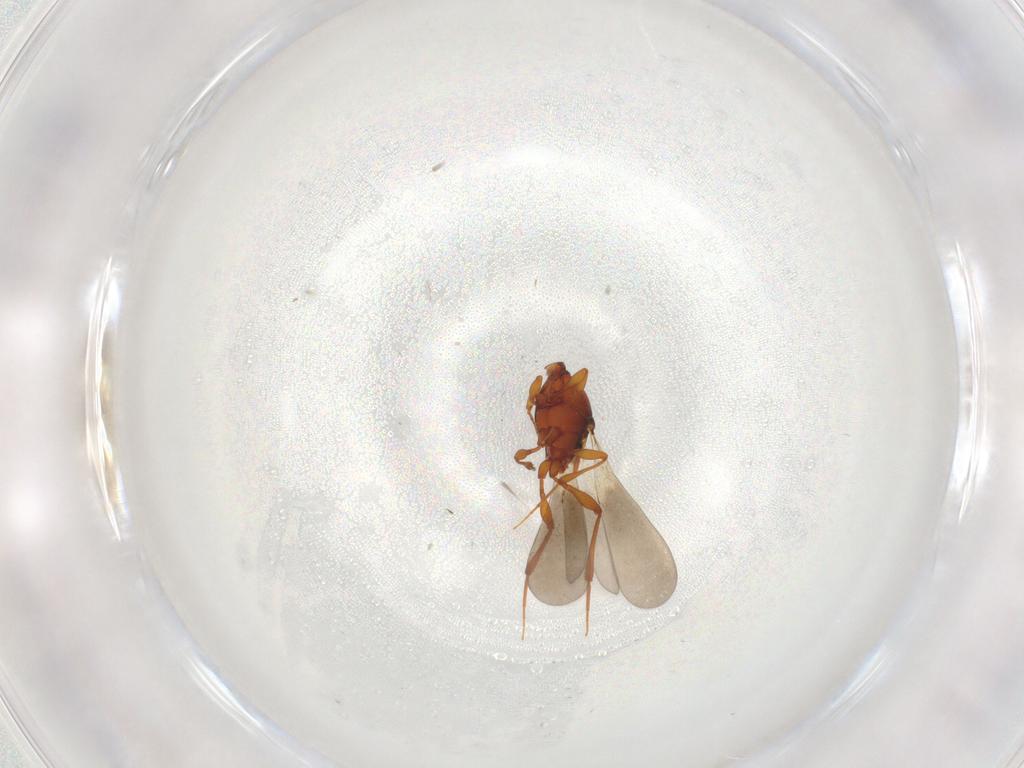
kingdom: Animalia
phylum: Arthropoda
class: Insecta
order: Hymenoptera
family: Platygastridae
